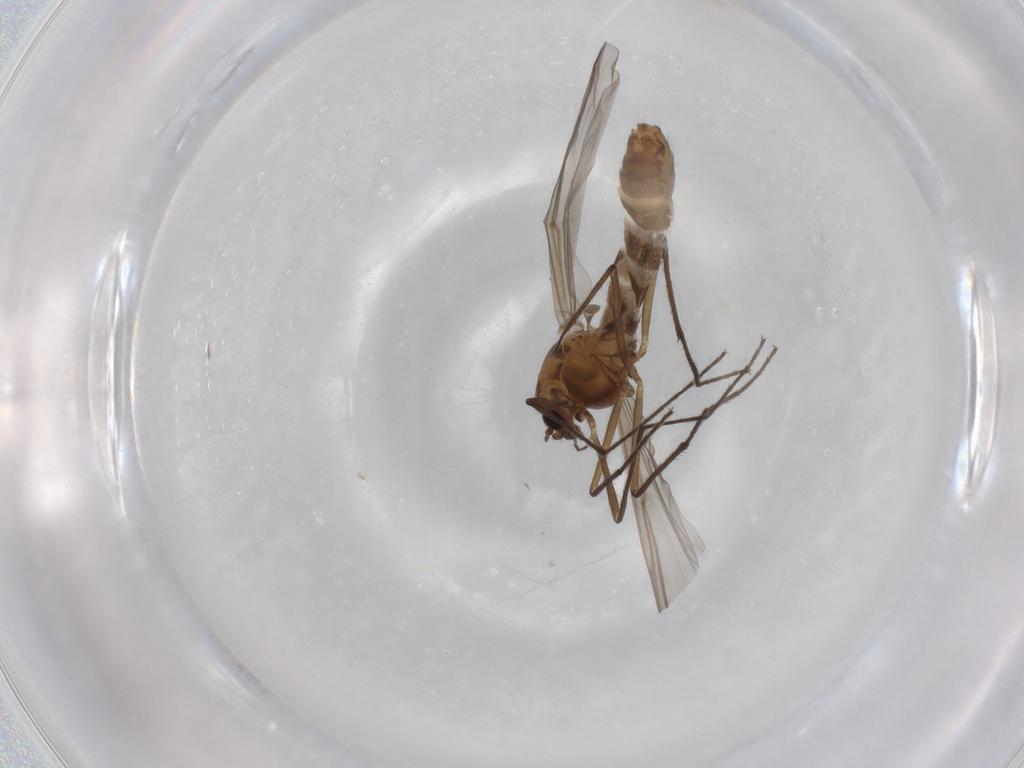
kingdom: Animalia
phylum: Arthropoda
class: Insecta
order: Diptera
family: Chironomidae
